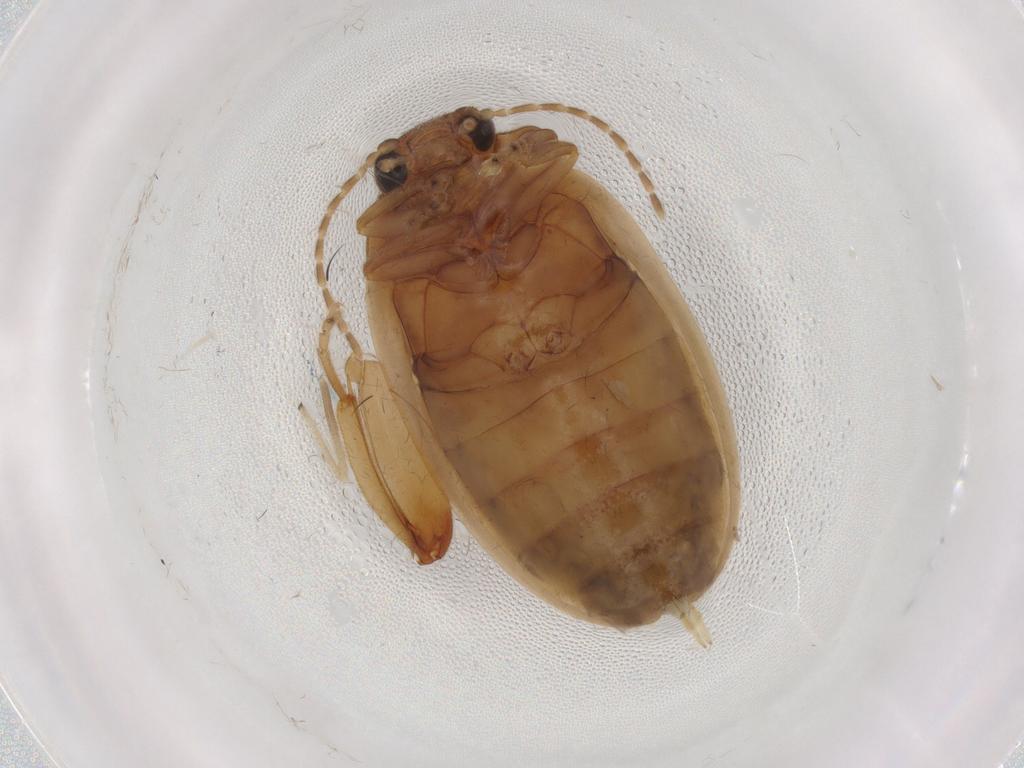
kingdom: Animalia
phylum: Arthropoda
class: Insecta
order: Coleoptera
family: Scirtidae
